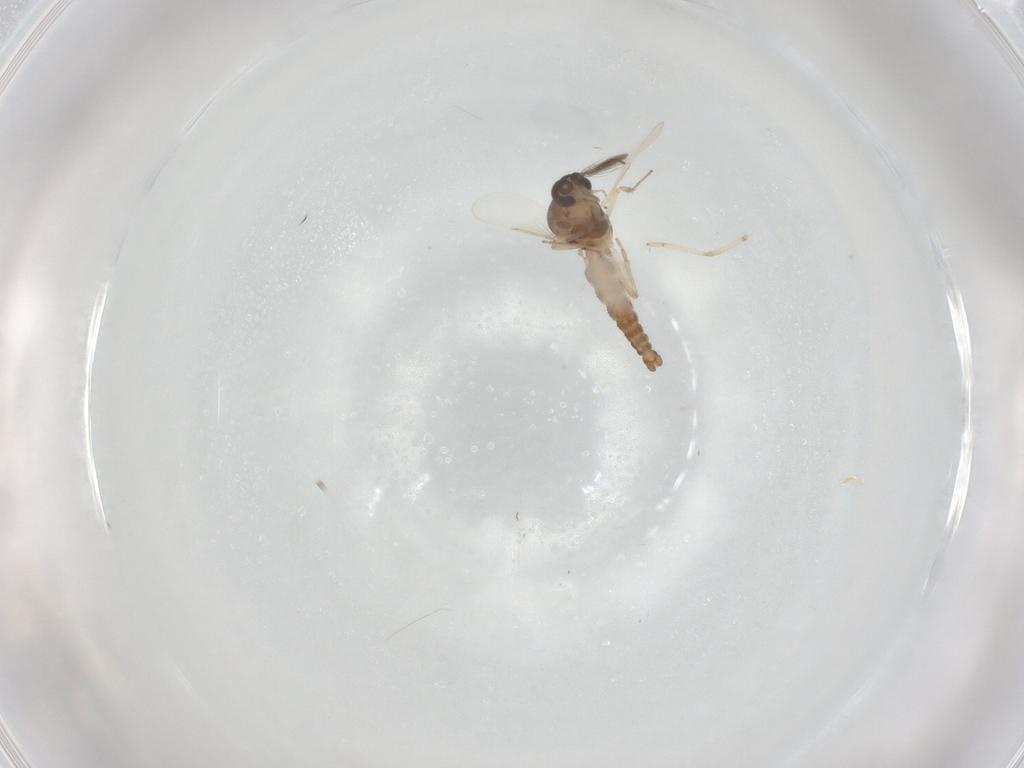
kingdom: Animalia
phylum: Arthropoda
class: Insecta
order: Diptera
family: Ceratopogonidae
